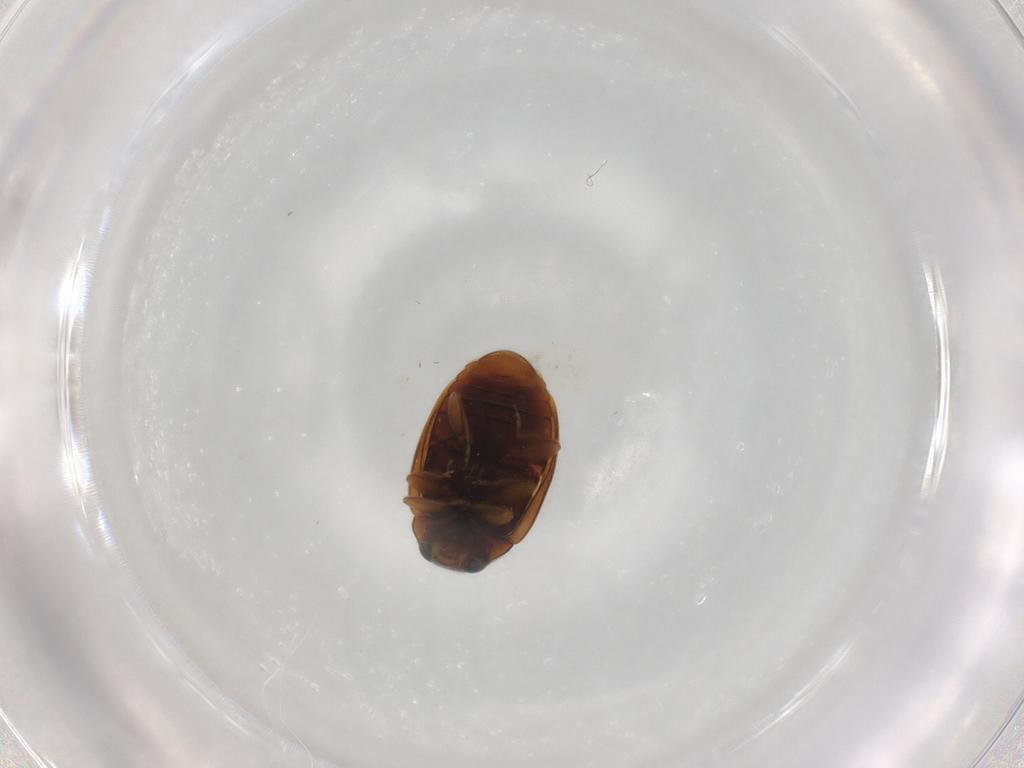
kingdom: Animalia
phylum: Arthropoda
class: Insecta
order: Coleoptera
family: Coccinellidae
